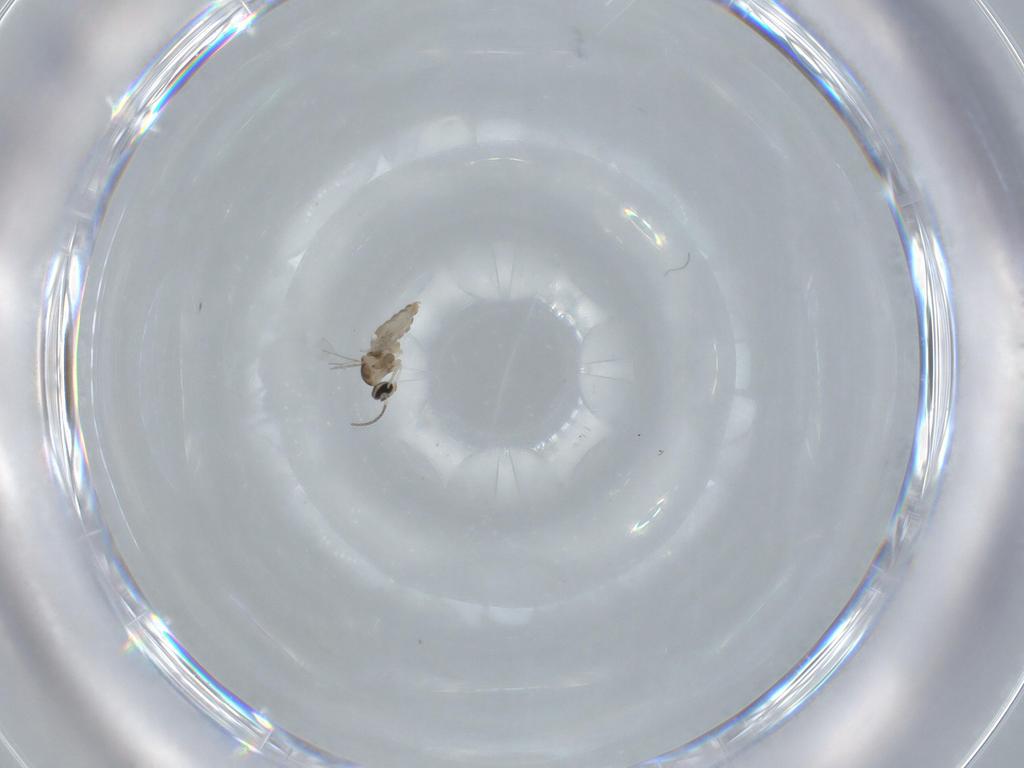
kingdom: Animalia
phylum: Arthropoda
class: Insecta
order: Diptera
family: Cecidomyiidae
